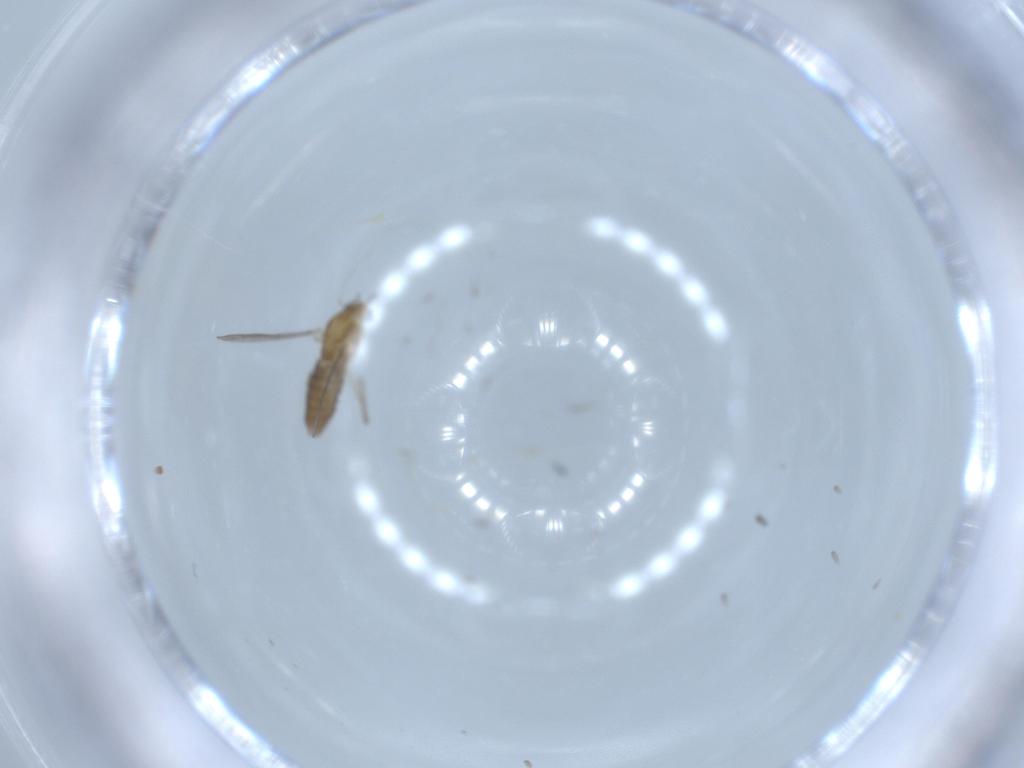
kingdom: Animalia
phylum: Arthropoda
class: Insecta
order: Diptera
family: Chironomidae
